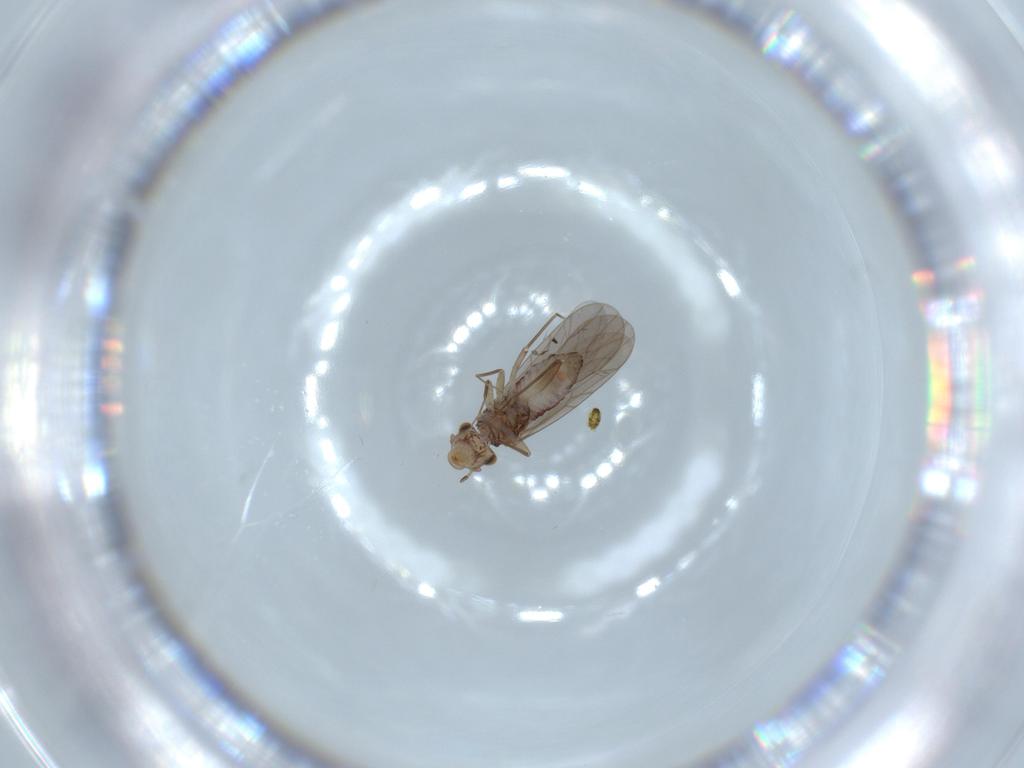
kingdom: Animalia
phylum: Arthropoda
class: Insecta
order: Psocodea
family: Lepidopsocidae
